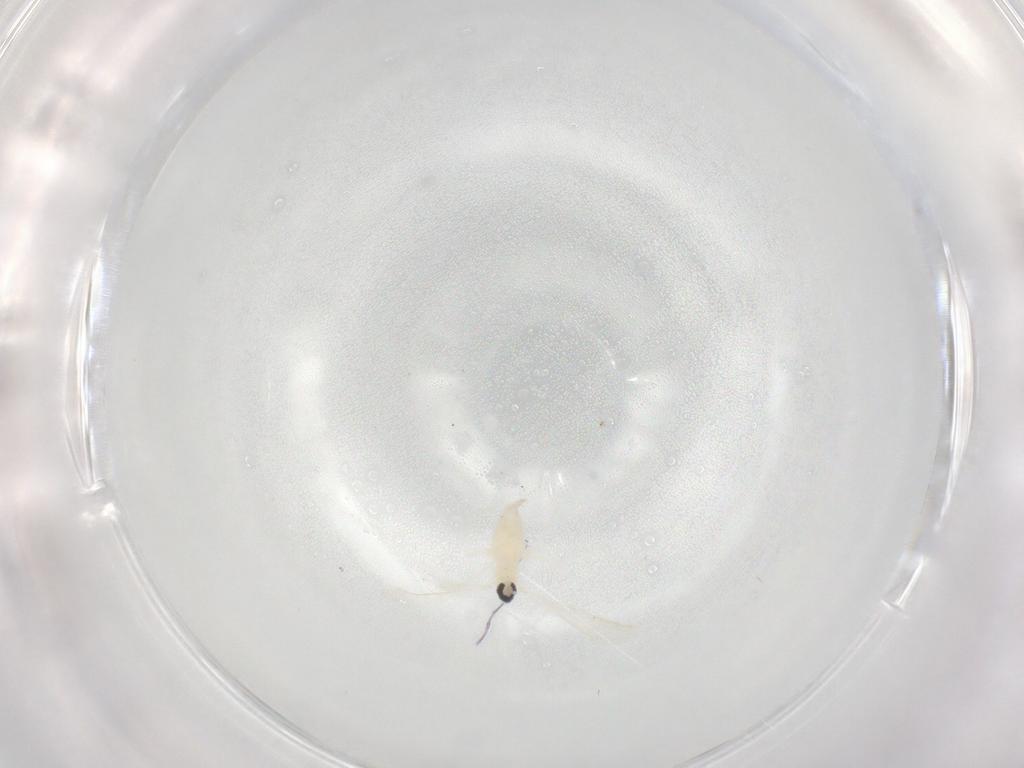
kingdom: Animalia
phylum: Arthropoda
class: Insecta
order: Diptera
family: Cecidomyiidae
